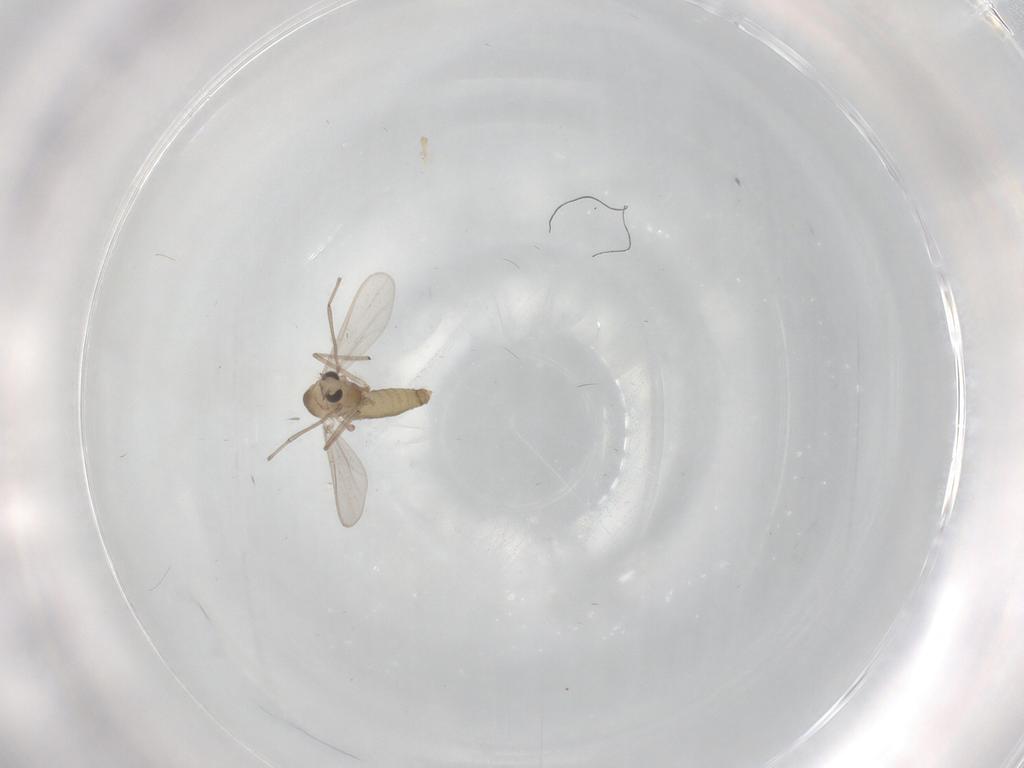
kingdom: Animalia
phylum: Arthropoda
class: Insecta
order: Diptera
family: Chironomidae
